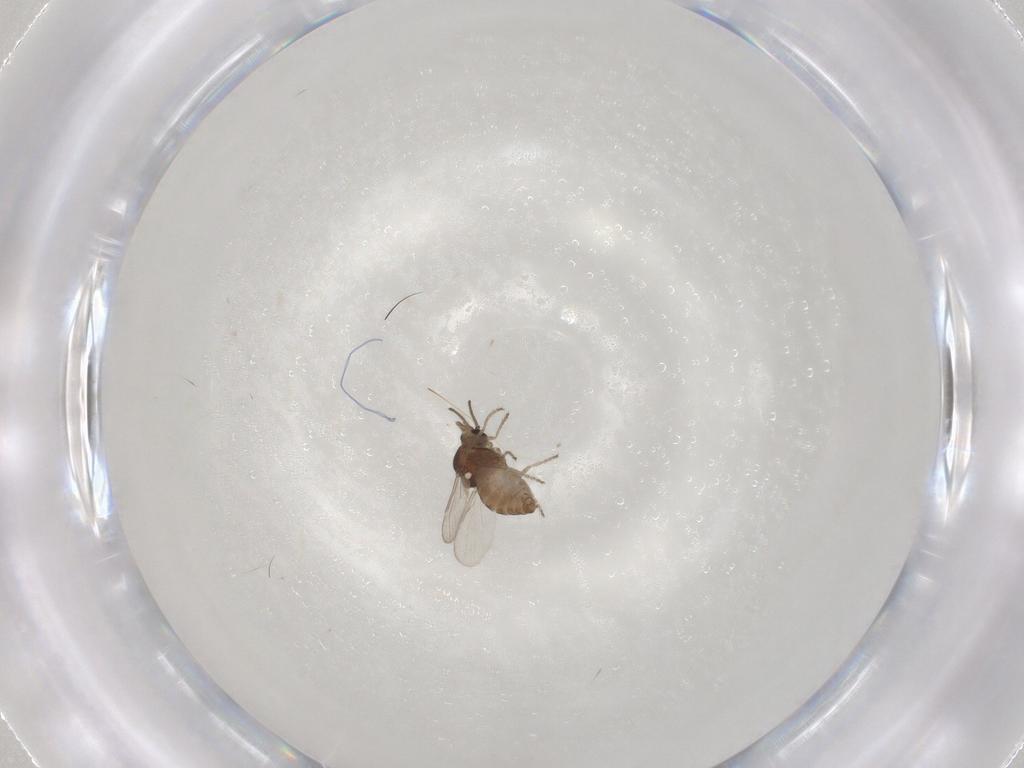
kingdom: Animalia
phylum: Arthropoda
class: Insecta
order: Diptera
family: Ceratopogonidae
